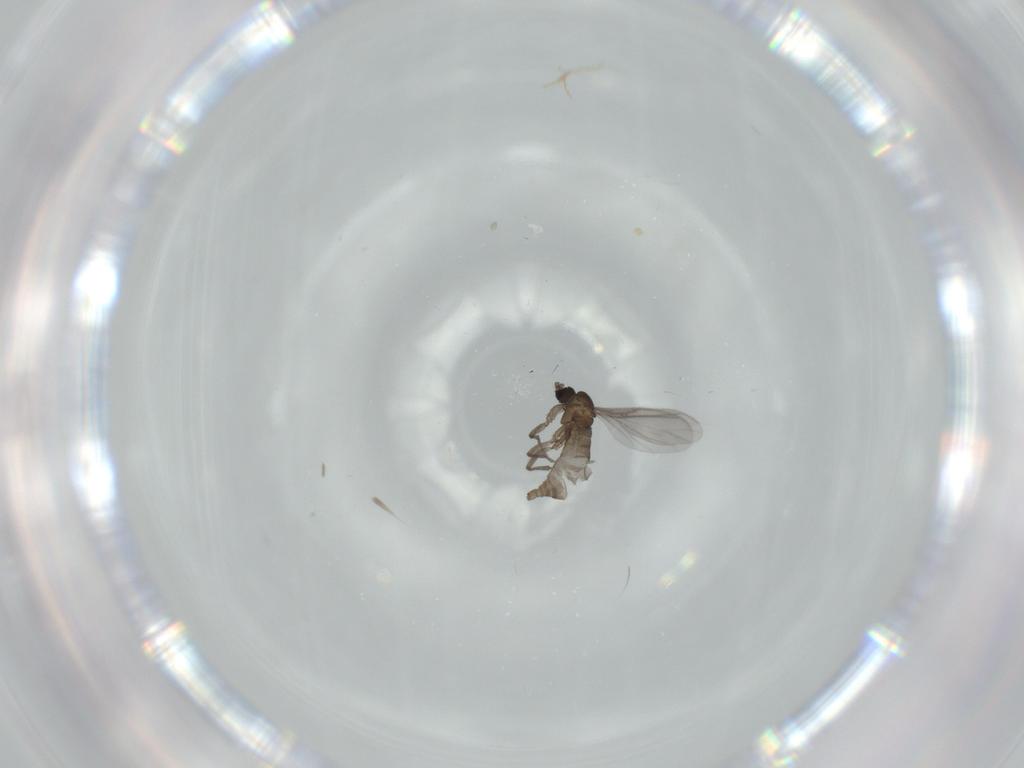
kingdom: Animalia
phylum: Arthropoda
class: Insecta
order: Diptera
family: Sciaridae
